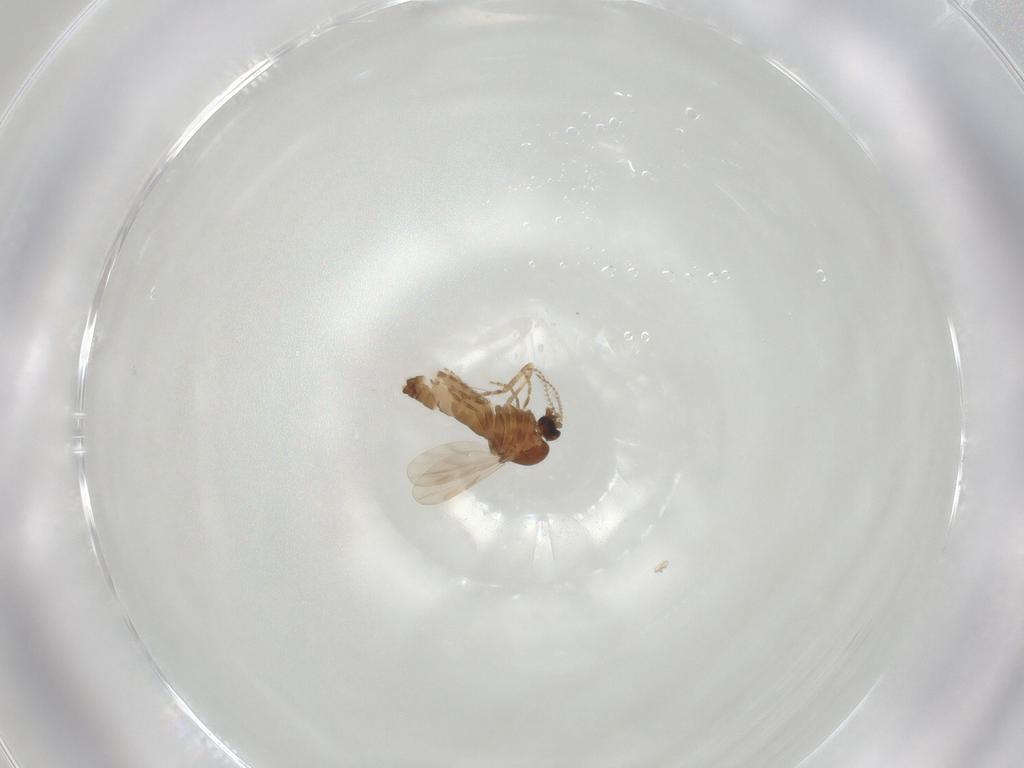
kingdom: Animalia
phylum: Arthropoda
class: Insecta
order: Diptera
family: Ceratopogonidae
